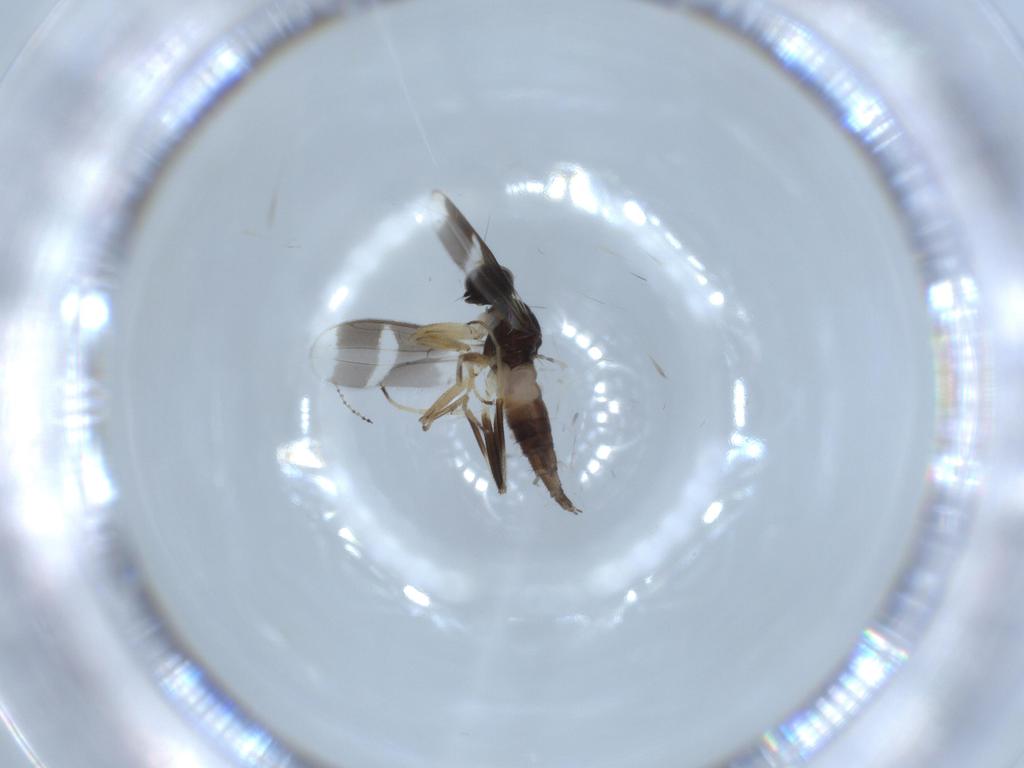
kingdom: Animalia
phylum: Arthropoda
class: Insecta
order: Diptera
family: Hybotidae
